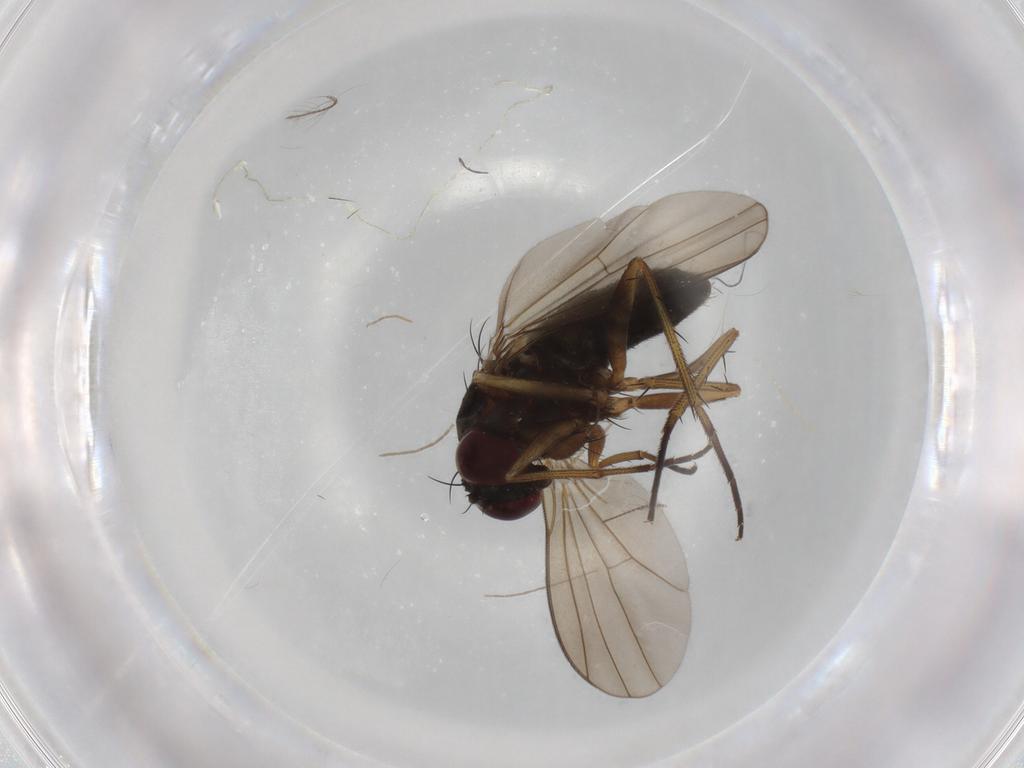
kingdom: Animalia
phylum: Arthropoda
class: Insecta
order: Diptera
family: Dolichopodidae
